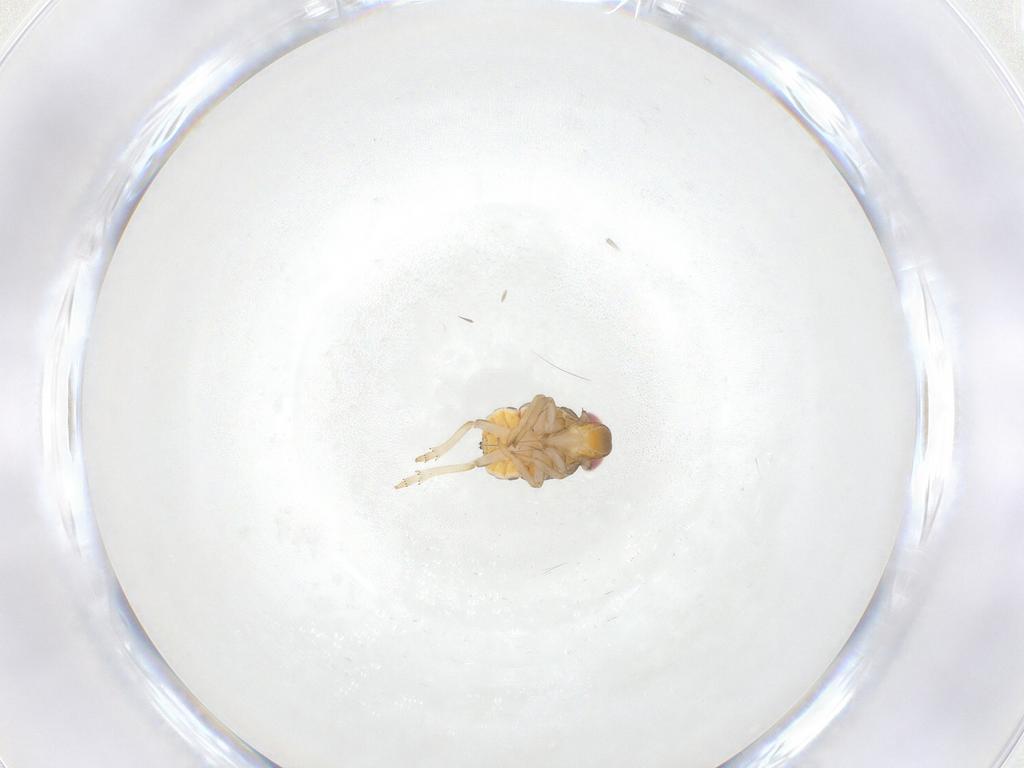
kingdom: Animalia
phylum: Arthropoda
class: Insecta
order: Hemiptera
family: Issidae
